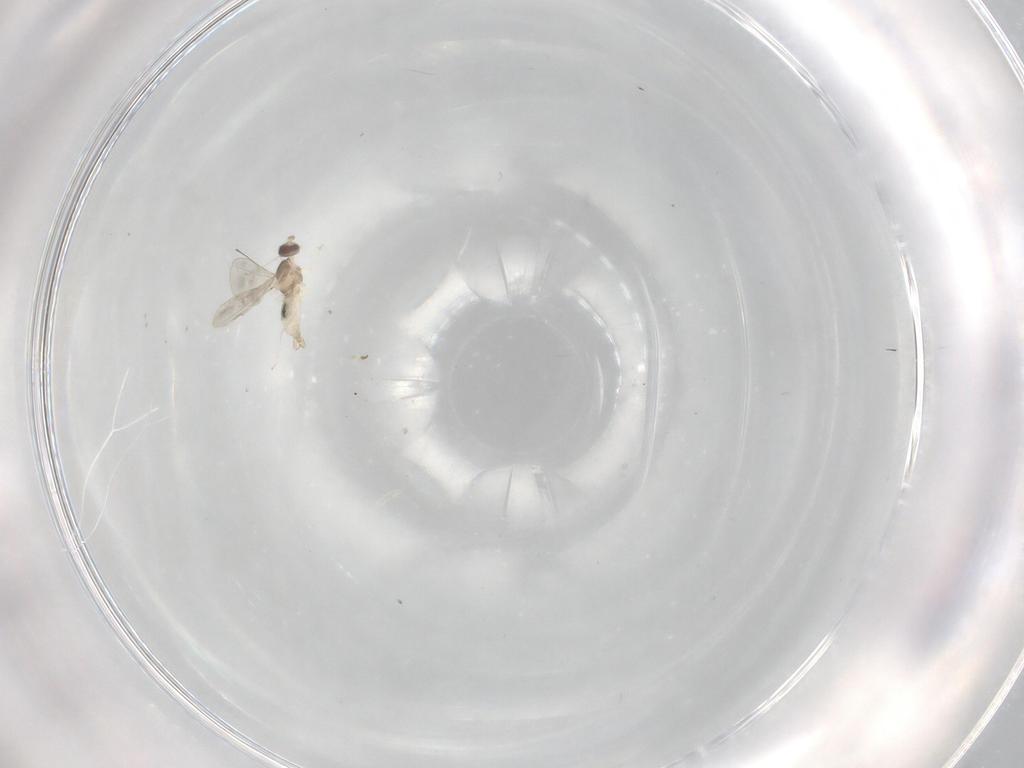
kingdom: Animalia
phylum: Arthropoda
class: Insecta
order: Diptera
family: Cecidomyiidae
